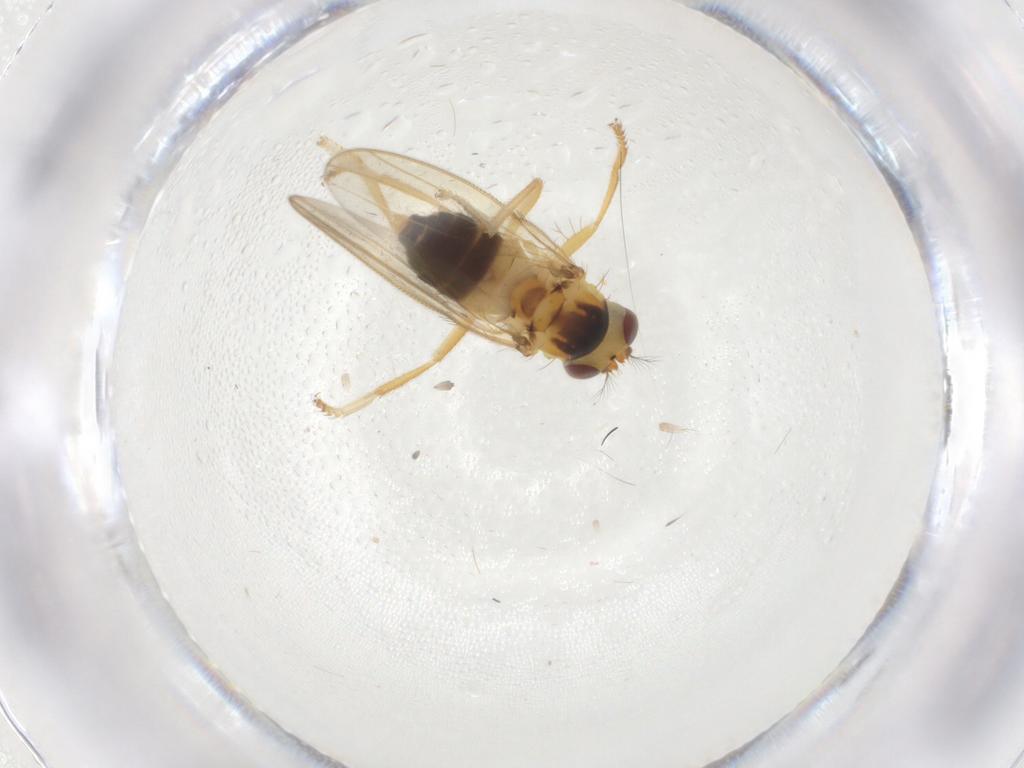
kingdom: Animalia
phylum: Arthropoda
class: Insecta
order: Diptera
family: Periscelididae
